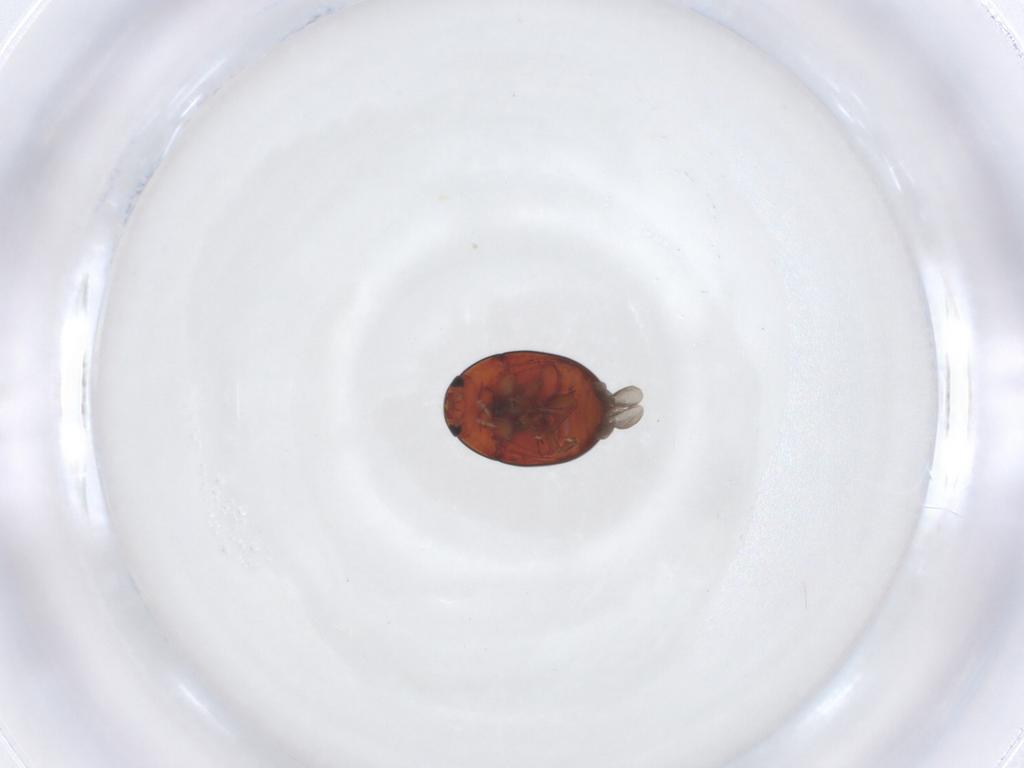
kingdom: Animalia
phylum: Arthropoda
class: Insecta
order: Coleoptera
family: Phalacridae
